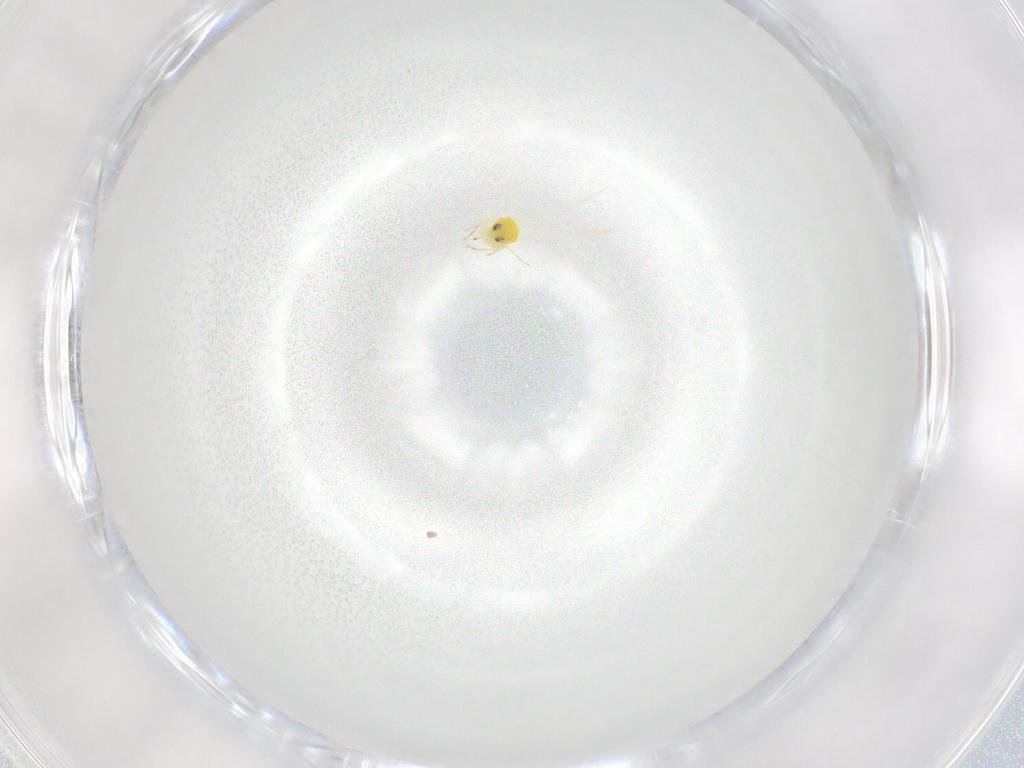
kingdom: Animalia
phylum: Arthropoda
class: Insecta
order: Hemiptera
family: Aleyrodidae
